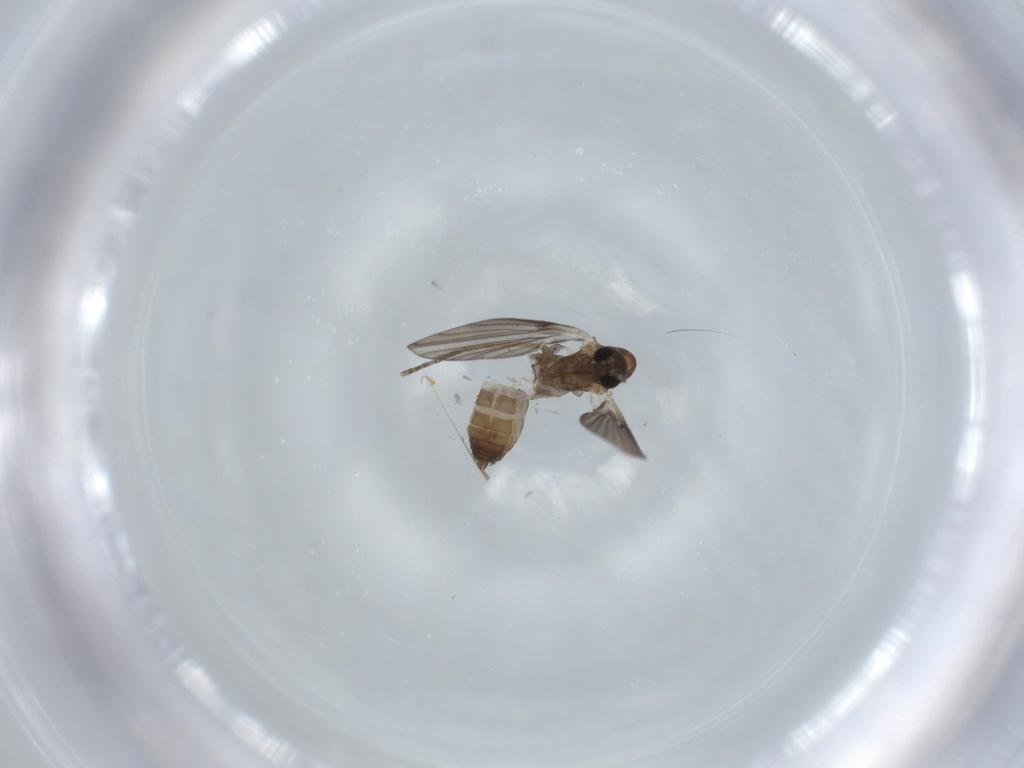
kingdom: Animalia
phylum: Arthropoda
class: Insecta
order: Diptera
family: Psychodidae
